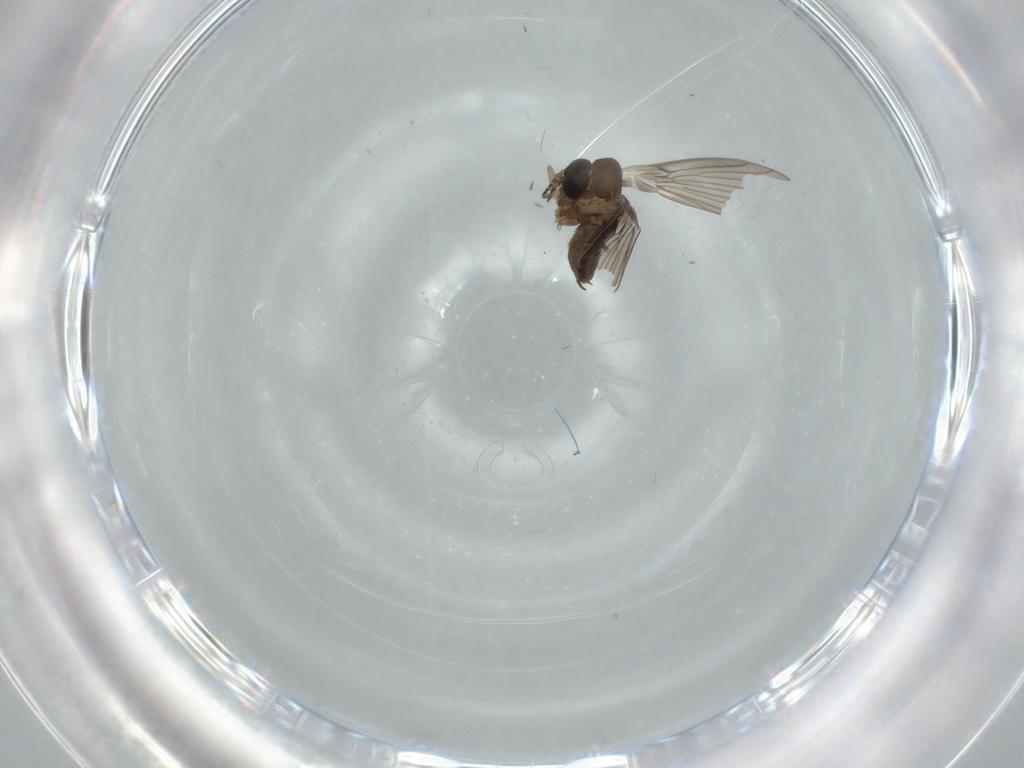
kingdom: Animalia
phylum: Arthropoda
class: Insecta
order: Diptera
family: Psychodidae
